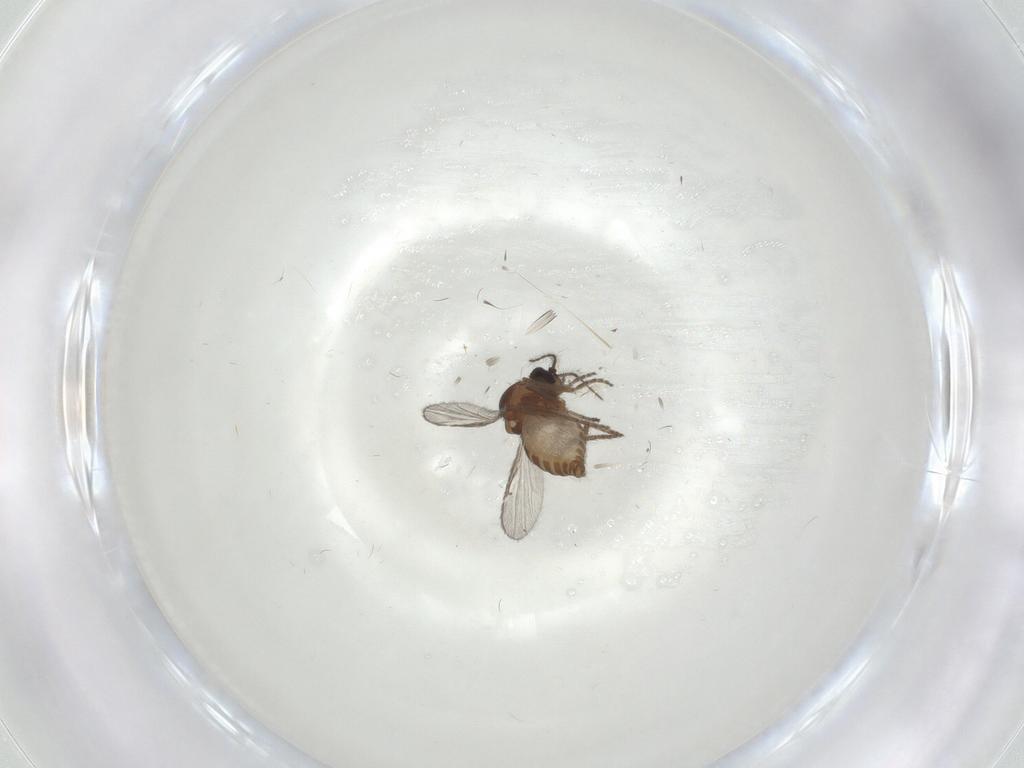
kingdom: Animalia
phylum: Arthropoda
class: Insecta
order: Diptera
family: Ceratopogonidae
